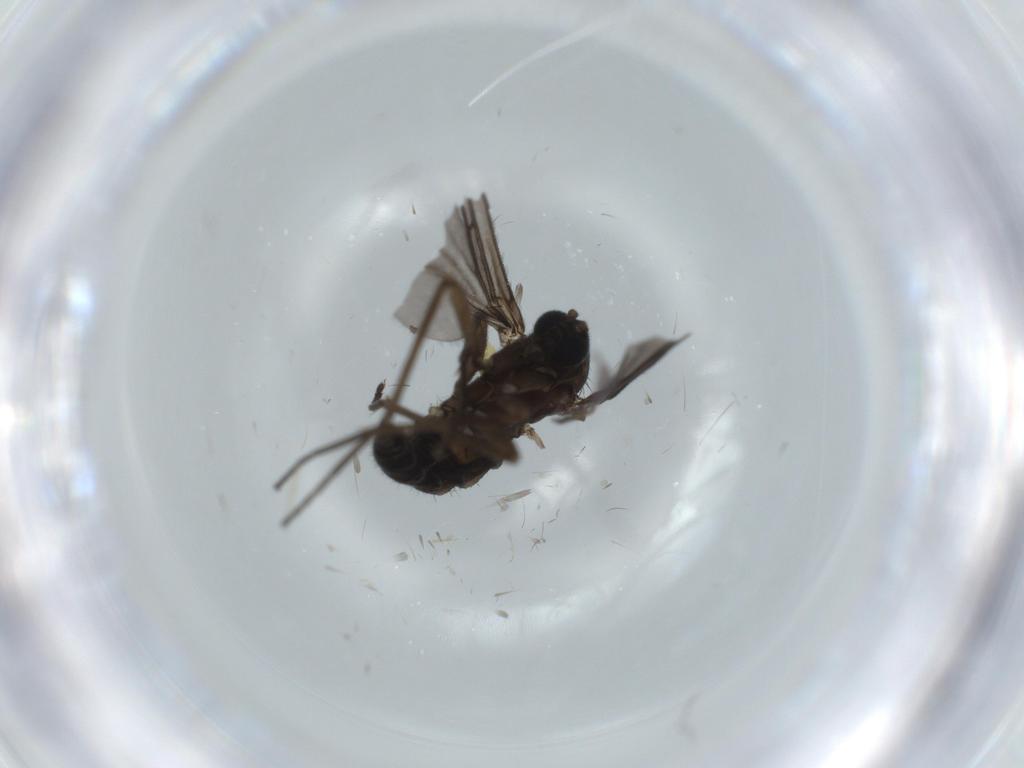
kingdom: Animalia
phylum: Arthropoda
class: Insecta
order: Diptera
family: Sciaridae
